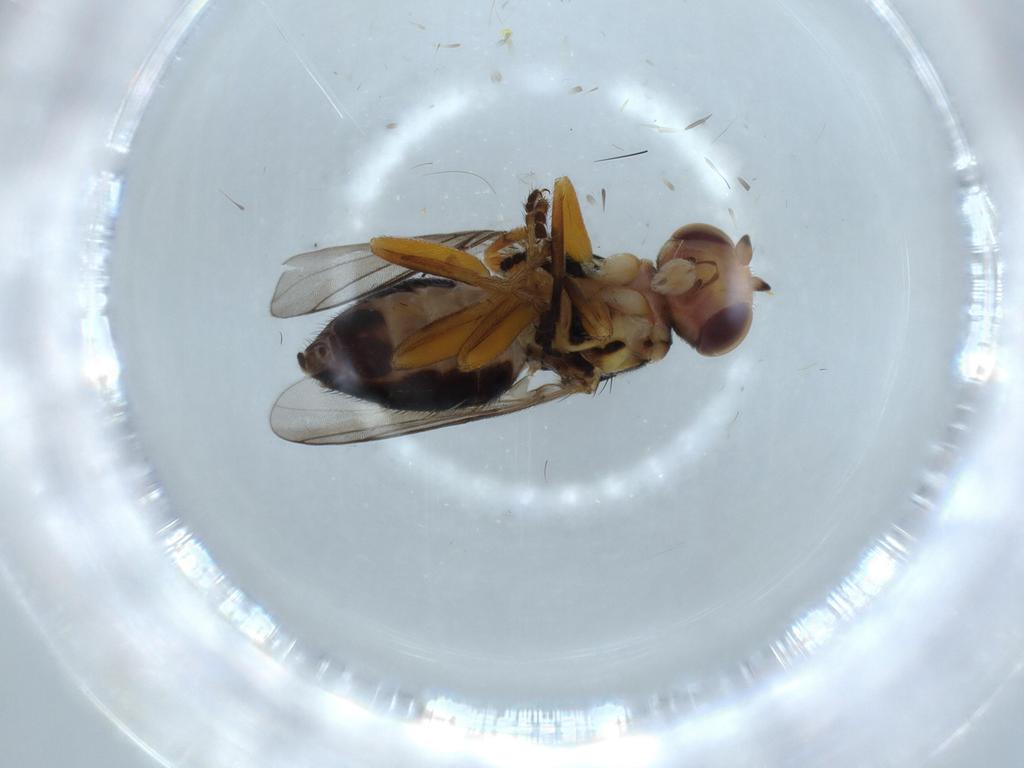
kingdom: Animalia
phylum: Arthropoda
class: Insecta
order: Diptera
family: Chloropidae
